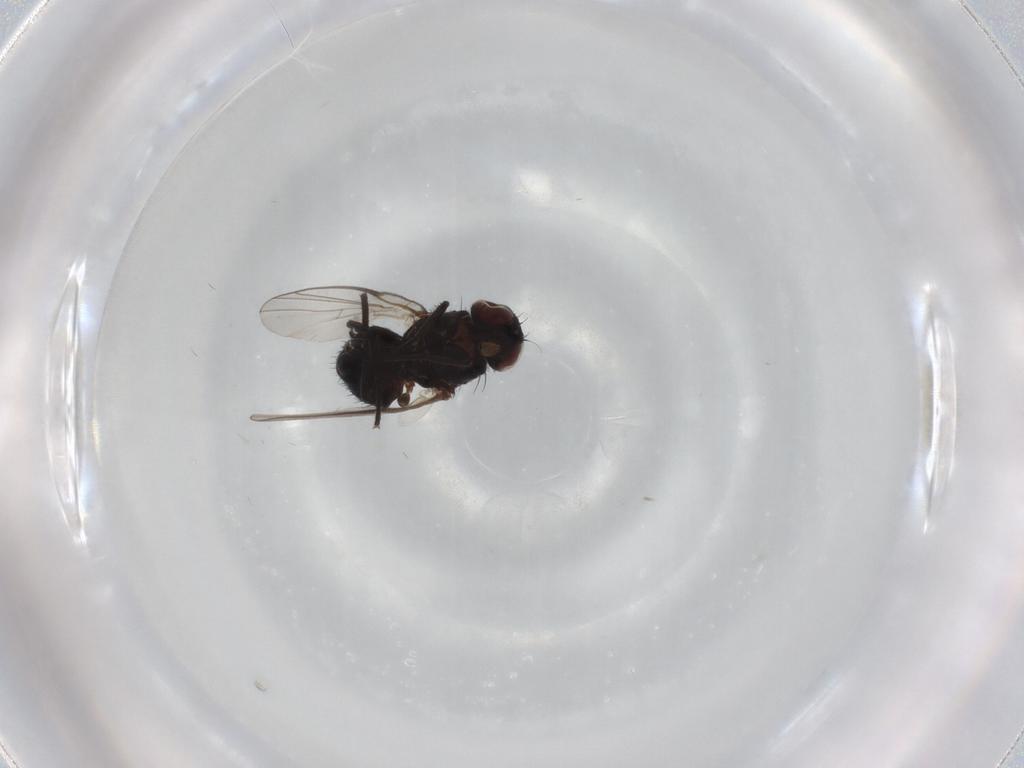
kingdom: Animalia
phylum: Arthropoda
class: Insecta
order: Diptera
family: Agromyzidae
